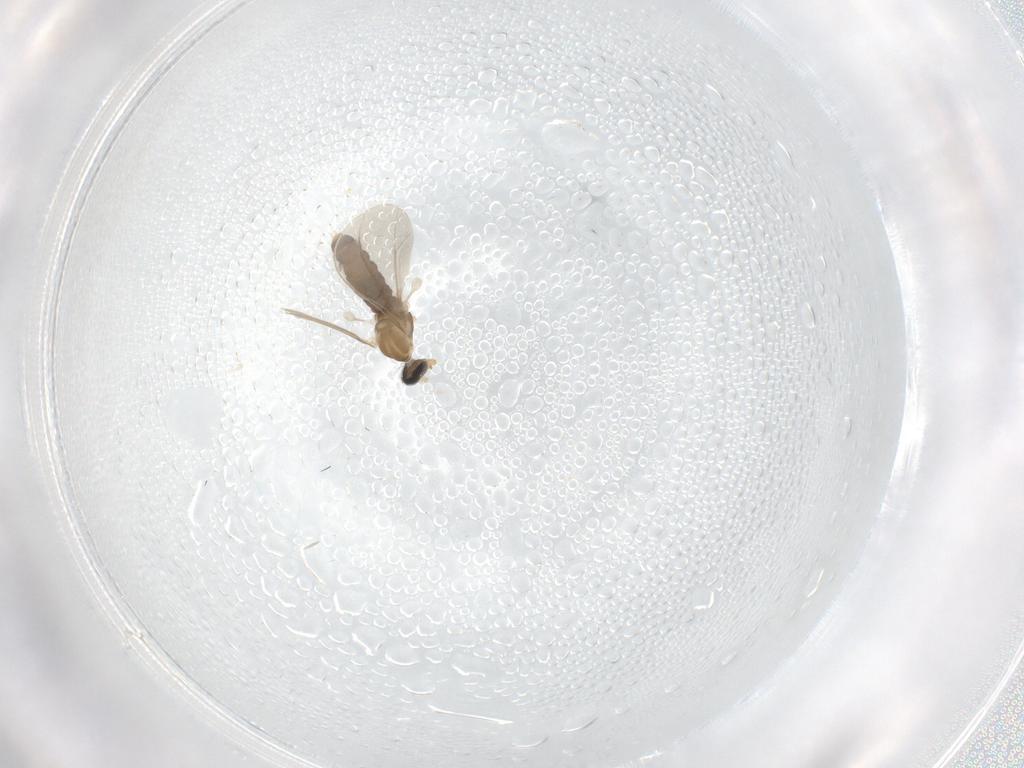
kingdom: Animalia
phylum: Arthropoda
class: Insecta
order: Diptera
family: Cecidomyiidae
